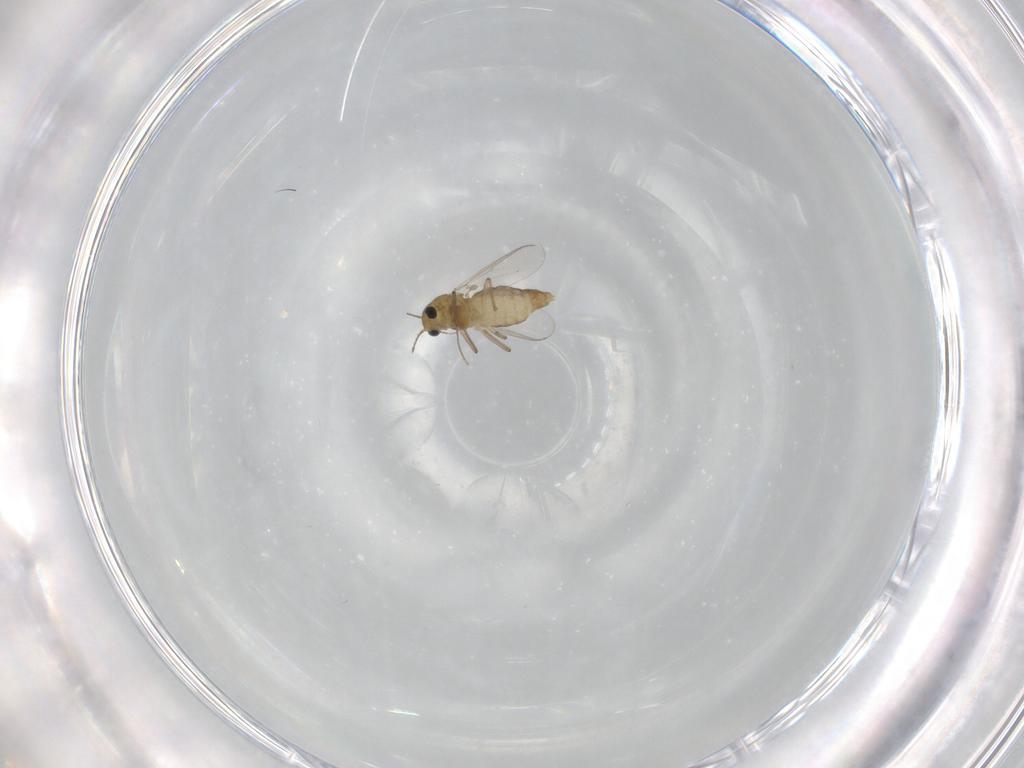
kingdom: Animalia
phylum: Arthropoda
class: Insecta
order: Diptera
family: Chironomidae
